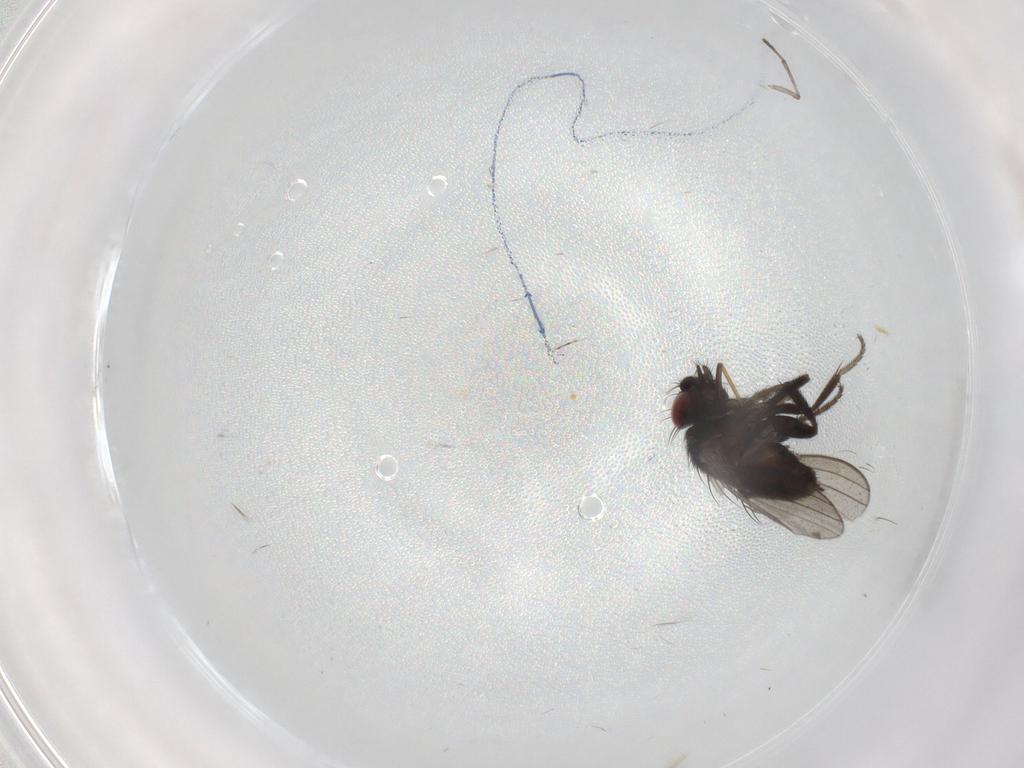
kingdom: Animalia
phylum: Arthropoda
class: Insecta
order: Diptera
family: Milichiidae
